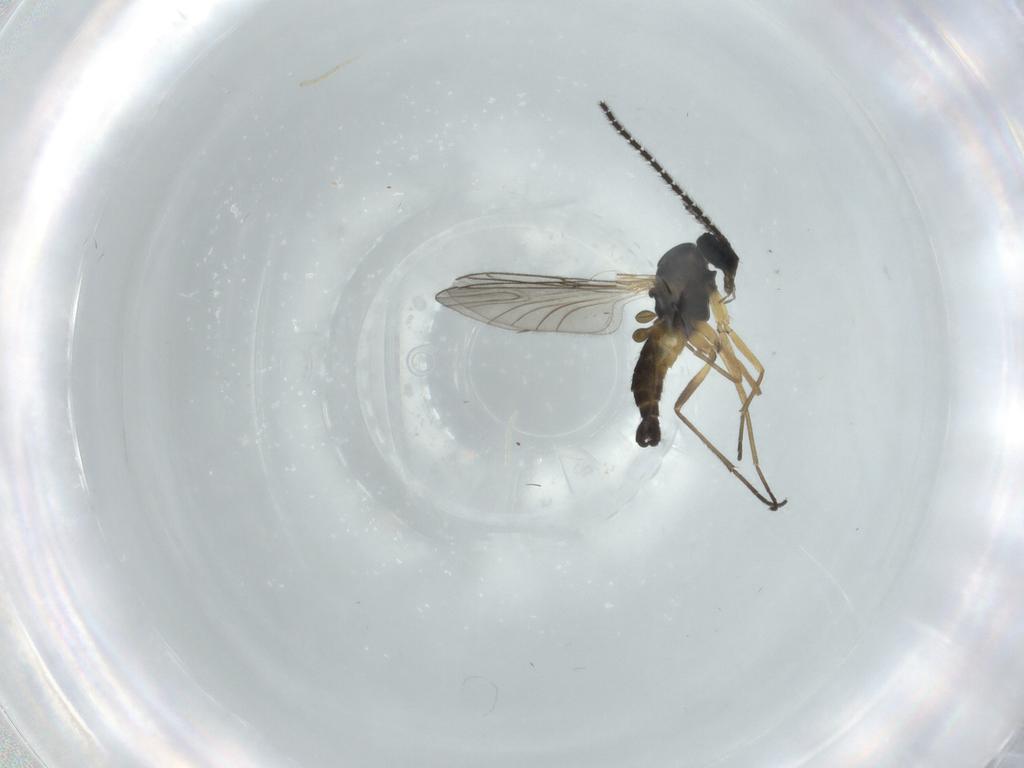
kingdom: Animalia
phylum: Arthropoda
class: Insecta
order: Diptera
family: Sciaridae
